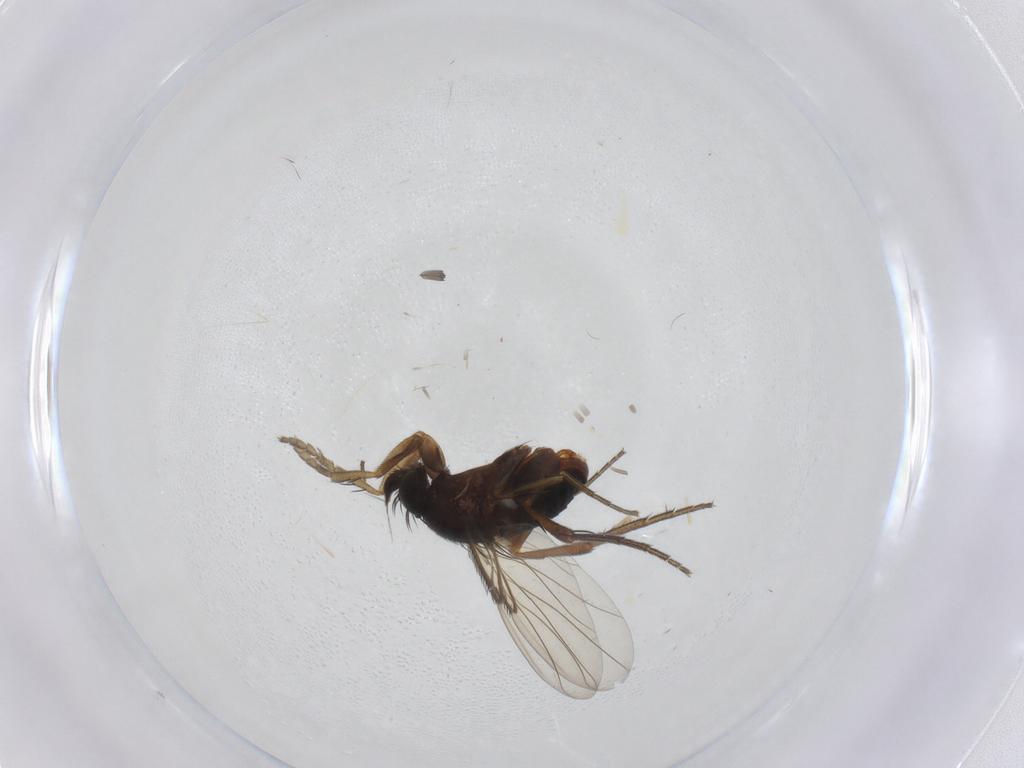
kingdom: Animalia
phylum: Arthropoda
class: Insecta
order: Diptera
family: Phoridae
